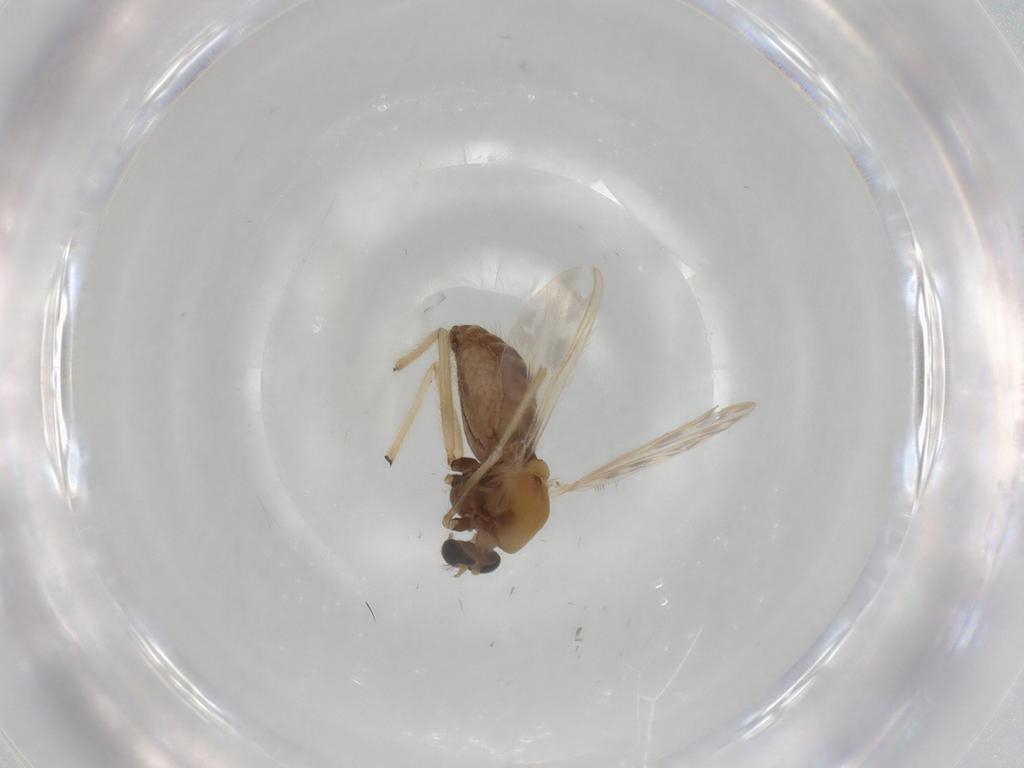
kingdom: Animalia
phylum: Arthropoda
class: Insecta
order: Diptera
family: Chironomidae
